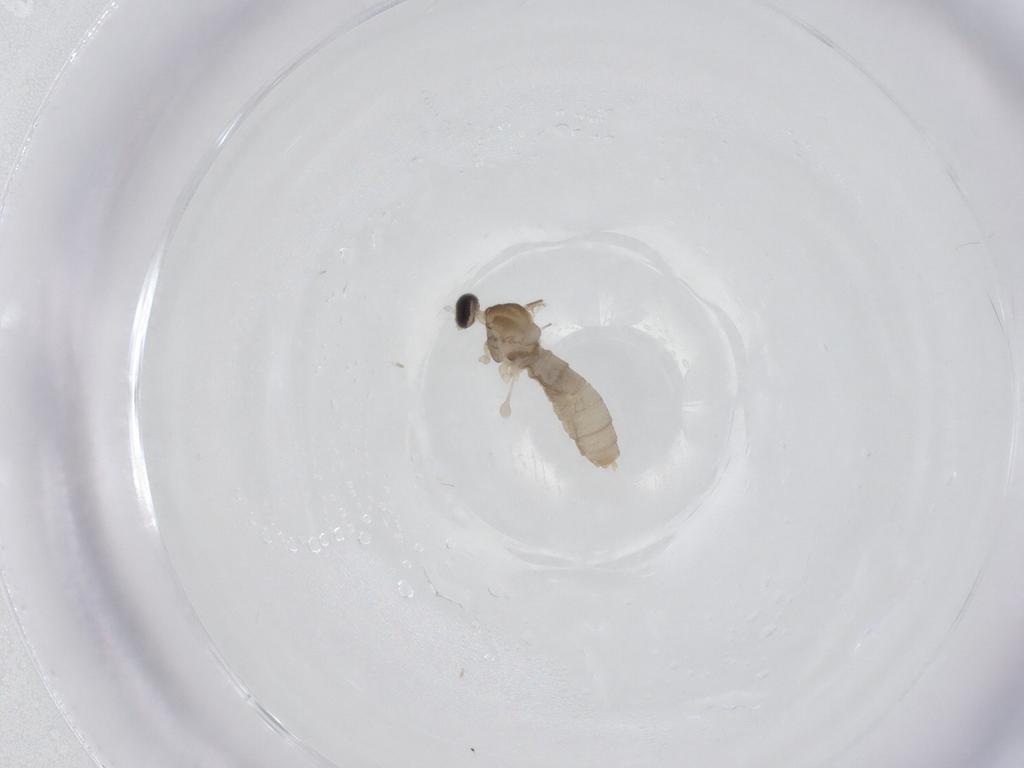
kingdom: Animalia
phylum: Arthropoda
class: Insecta
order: Diptera
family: Cecidomyiidae
